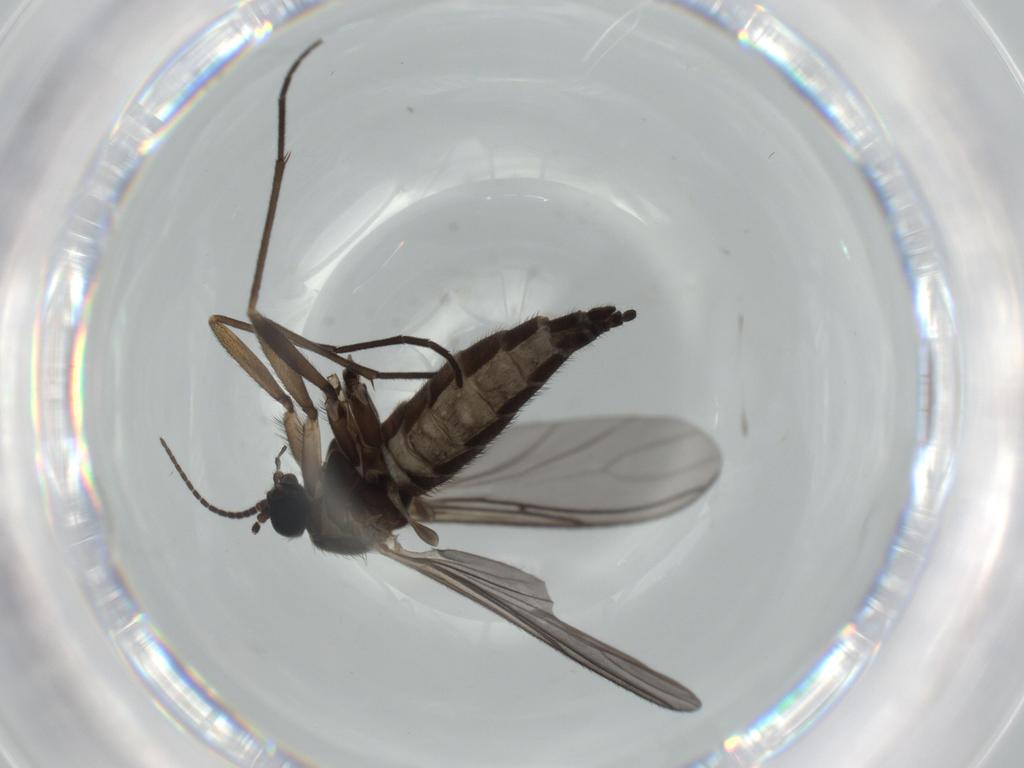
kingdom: Animalia
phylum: Arthropoda
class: Insecta
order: Diptera
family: Sciaridae
